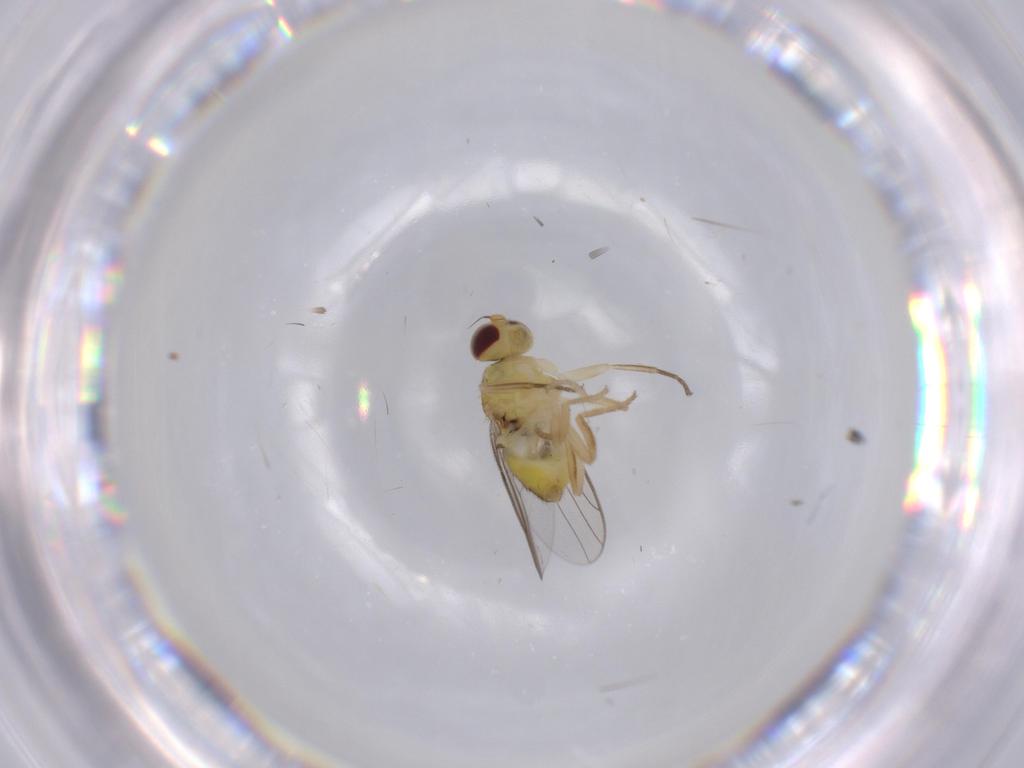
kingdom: Animalia
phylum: Arthropoda
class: Insecta
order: Diptera
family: Cecidomyiidae
